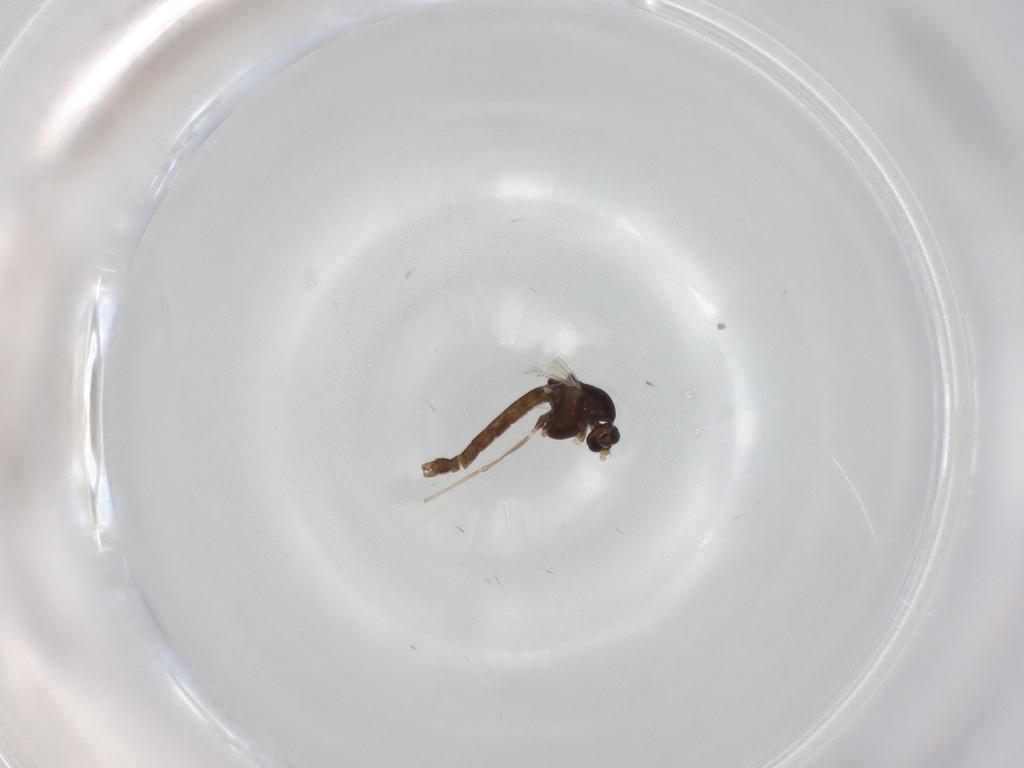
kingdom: Animalia
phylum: Arthropoda
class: Insecta
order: Diptera
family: Chironomidae
